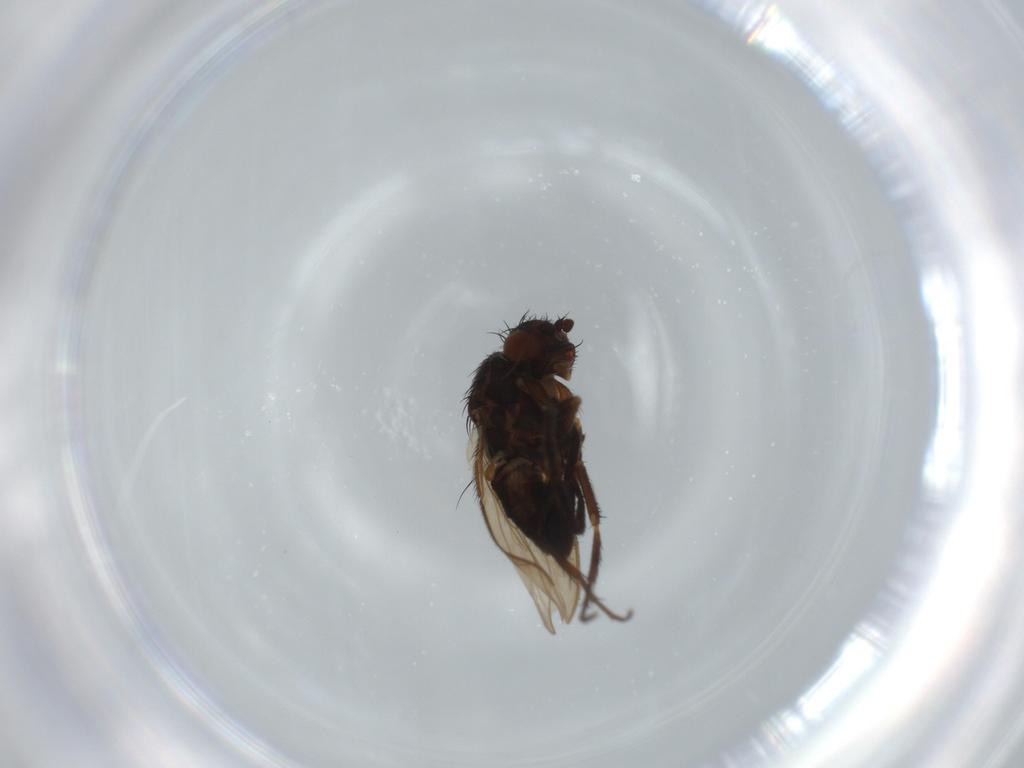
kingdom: Animalia
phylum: Arthropoda
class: Insecta
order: Diptera
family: Sphaeroceridae
